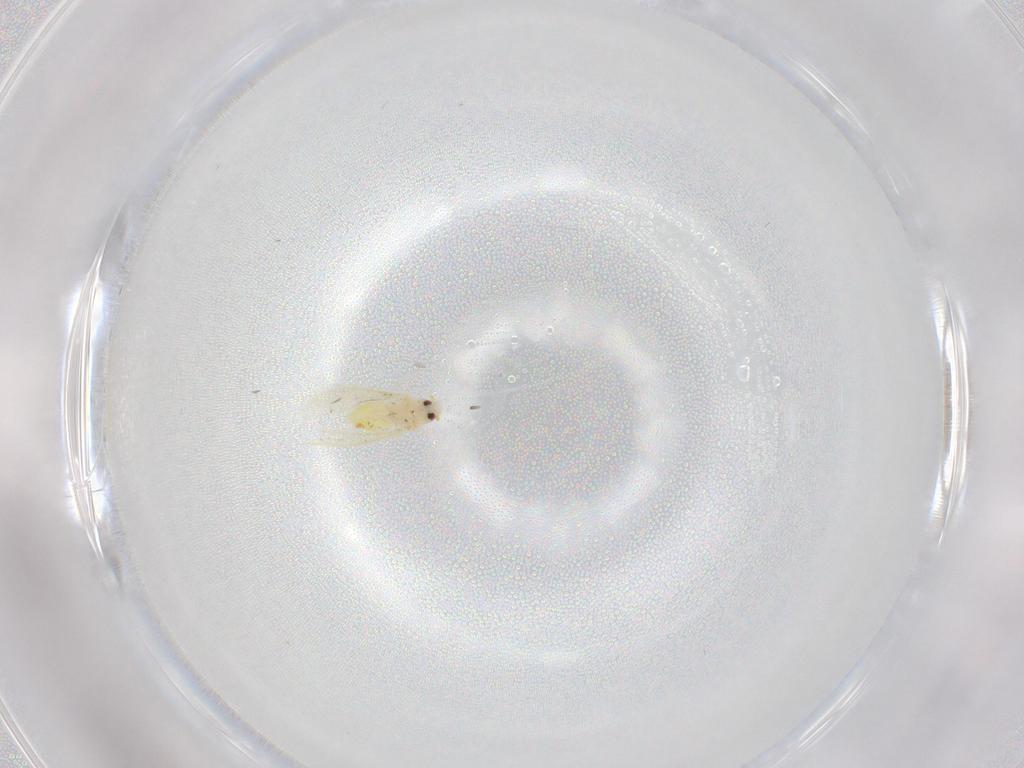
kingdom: Animalia
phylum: Arthropoda
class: Insecta
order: Hemiptera
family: Aleyrodidae
